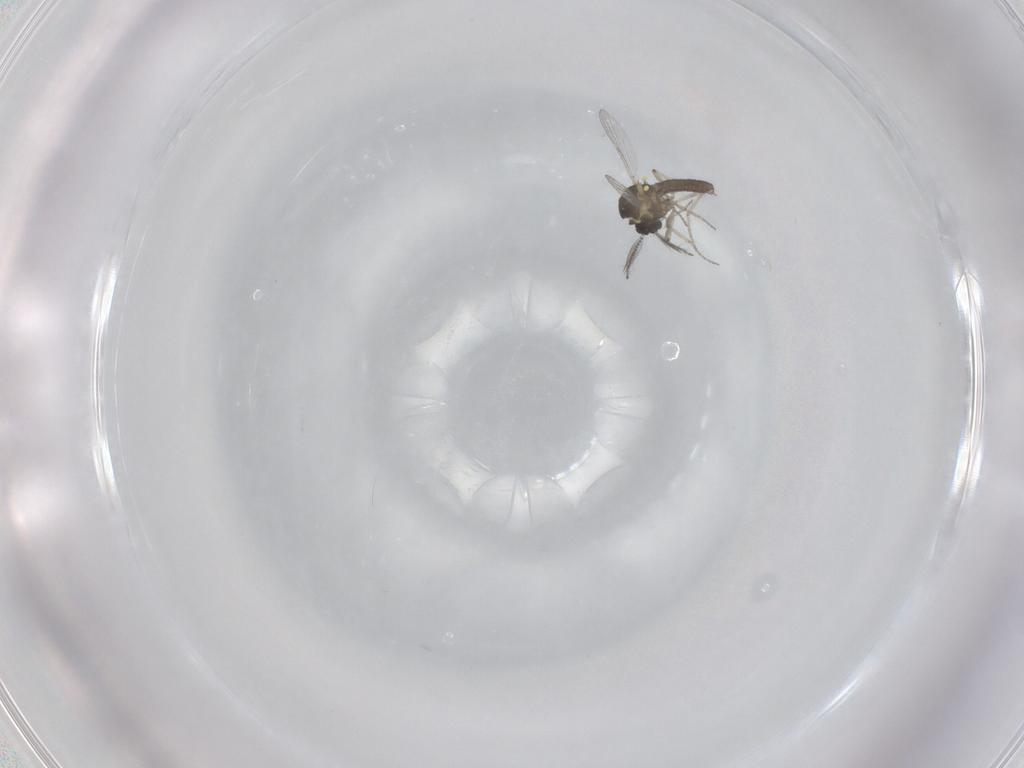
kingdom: Animalia
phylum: Arthropoda
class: Insecta
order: Diptera
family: Ceratopogonidae
